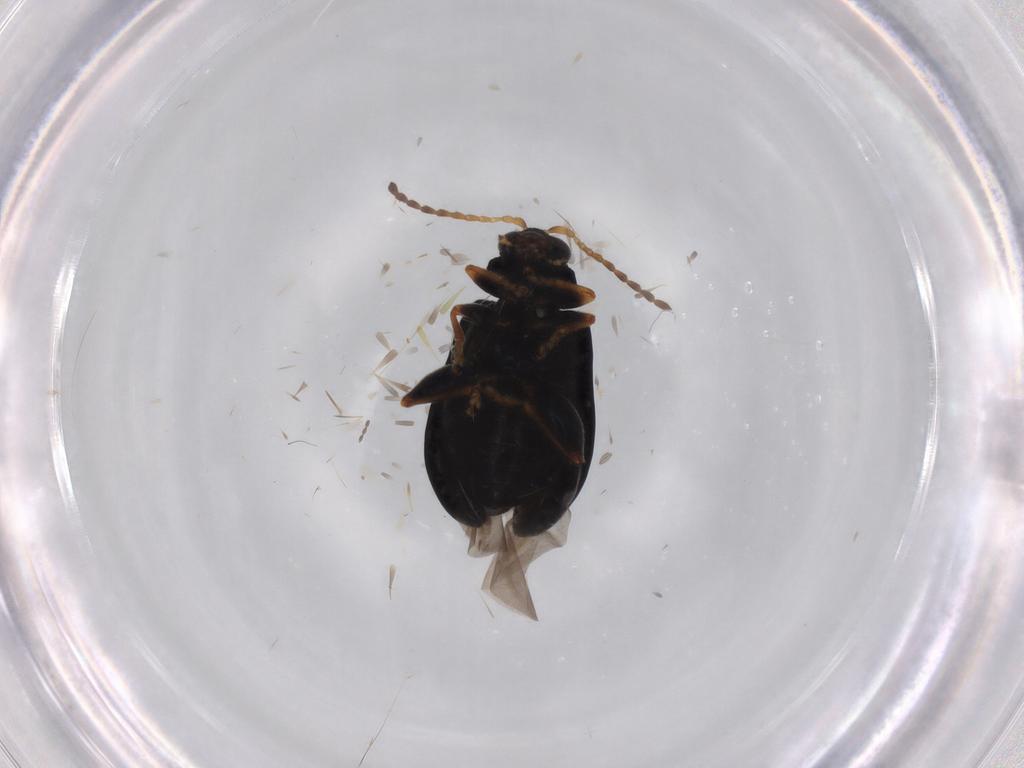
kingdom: Animalia
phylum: Arthropoda
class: Insecta
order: Coleoptera
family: Chrysomelidae
